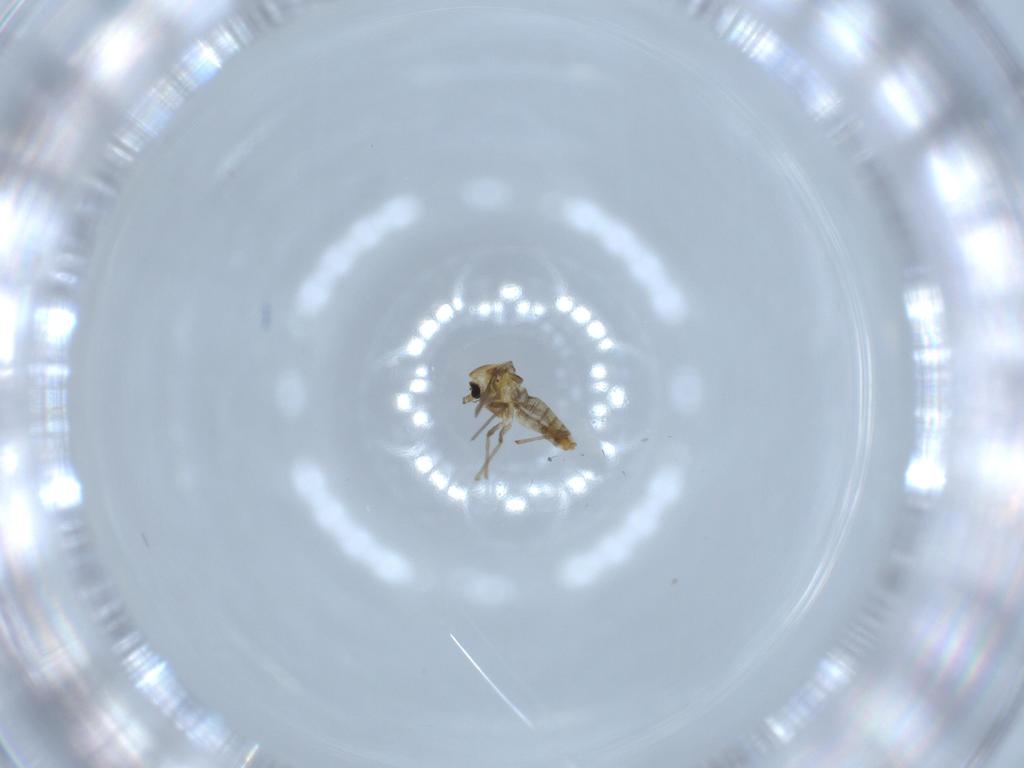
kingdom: Animalia
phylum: Arthropoda
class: Insecta
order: Diptera
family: Chironomidae
